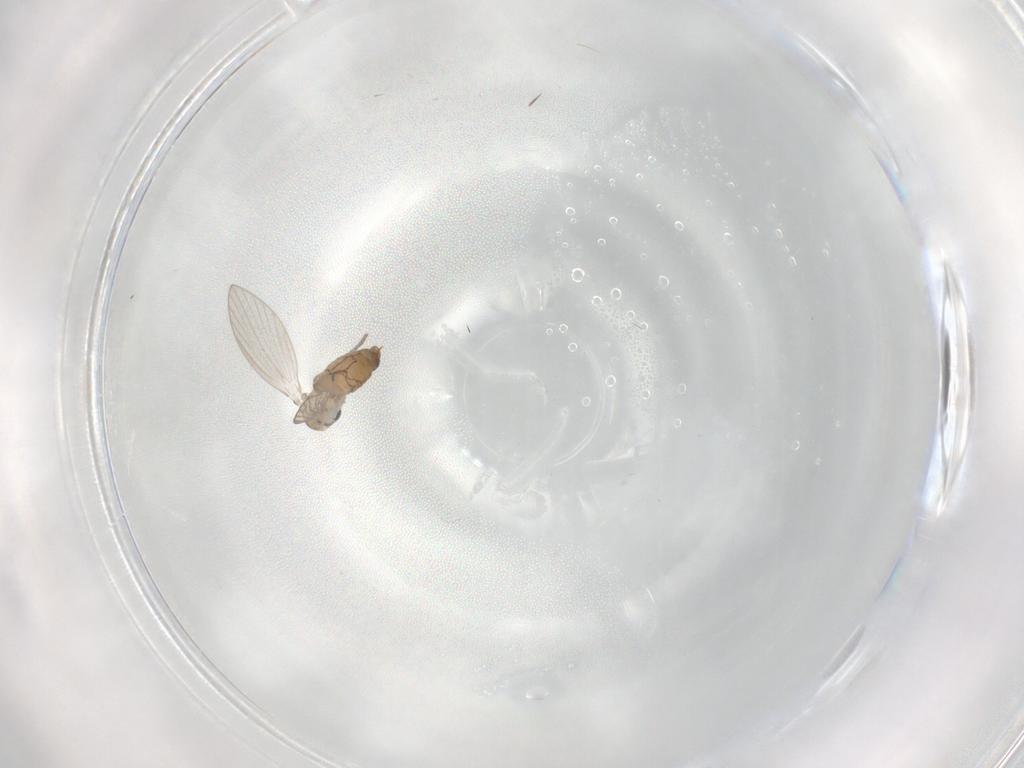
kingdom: Animalia
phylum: Arthropoda
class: Insecta
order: Diptera
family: Psychodidae
